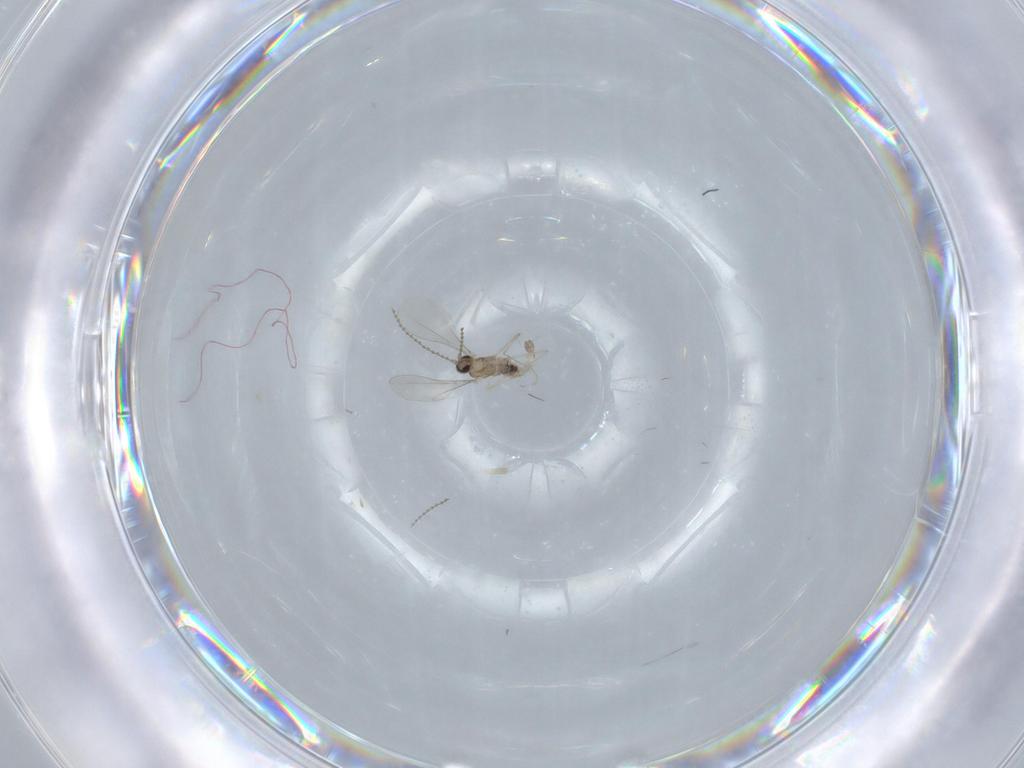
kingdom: Animalia
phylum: Arthropoda
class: Insecta
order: Diptera
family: Cecidomyiidae
